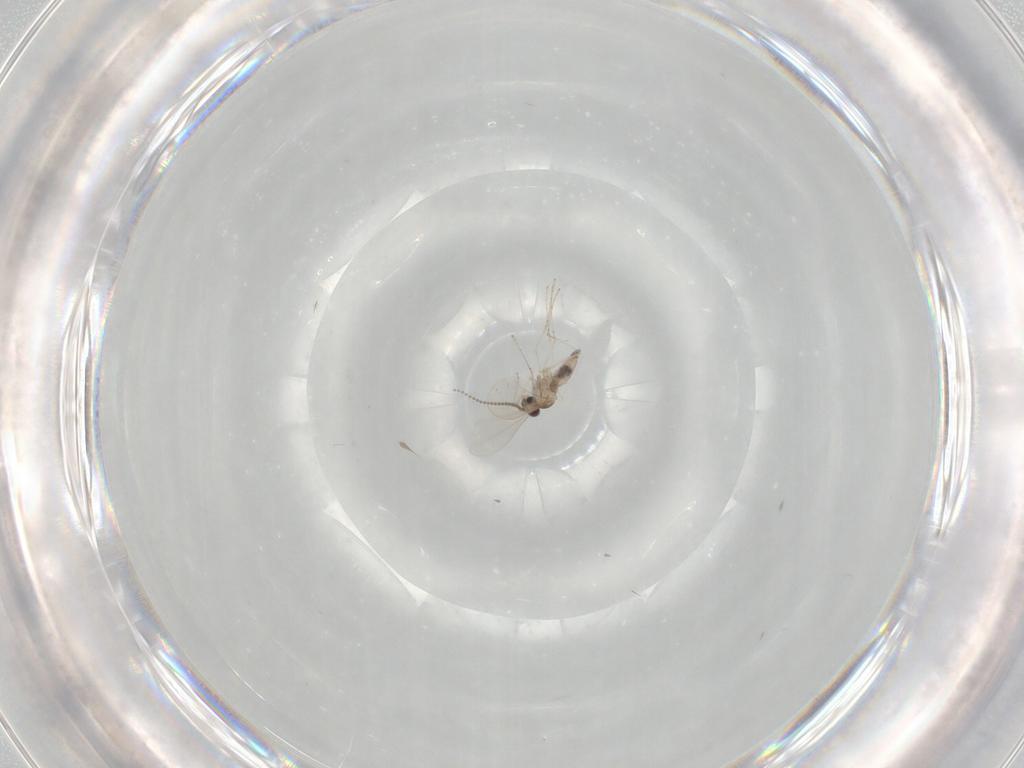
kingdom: Animalia
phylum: Arthropoda
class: Insecta
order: Diptera
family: Cecidomyiidae
